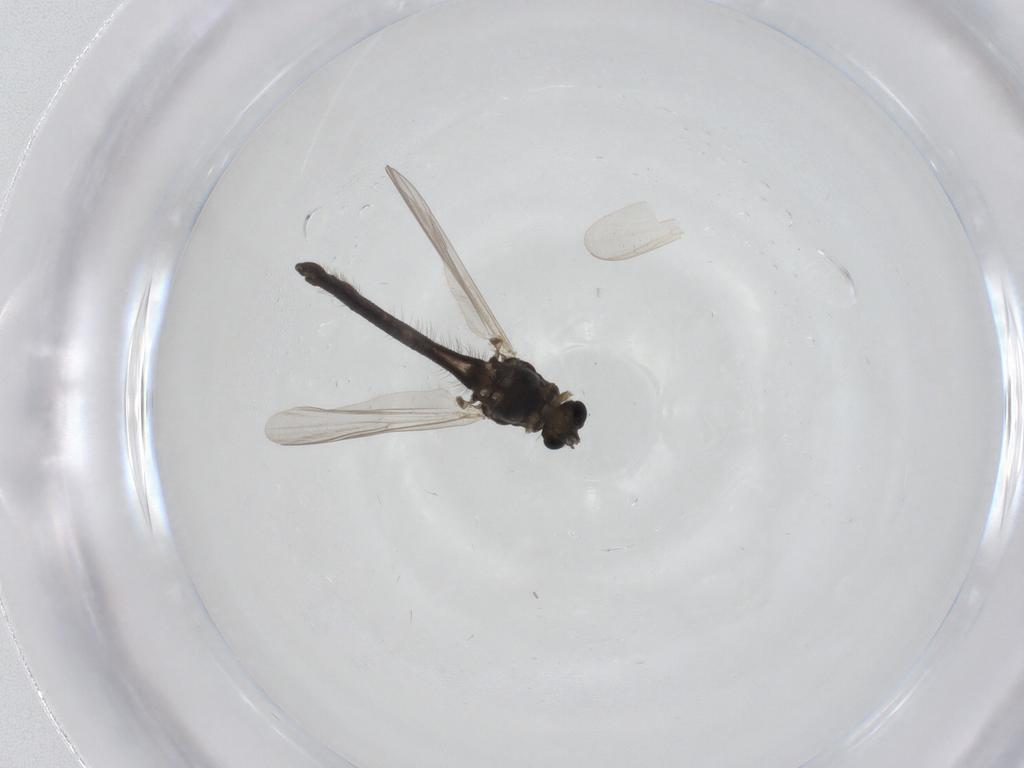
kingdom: Animalia
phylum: Arthropoda
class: Insecta
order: Diptera
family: Chironomidae
